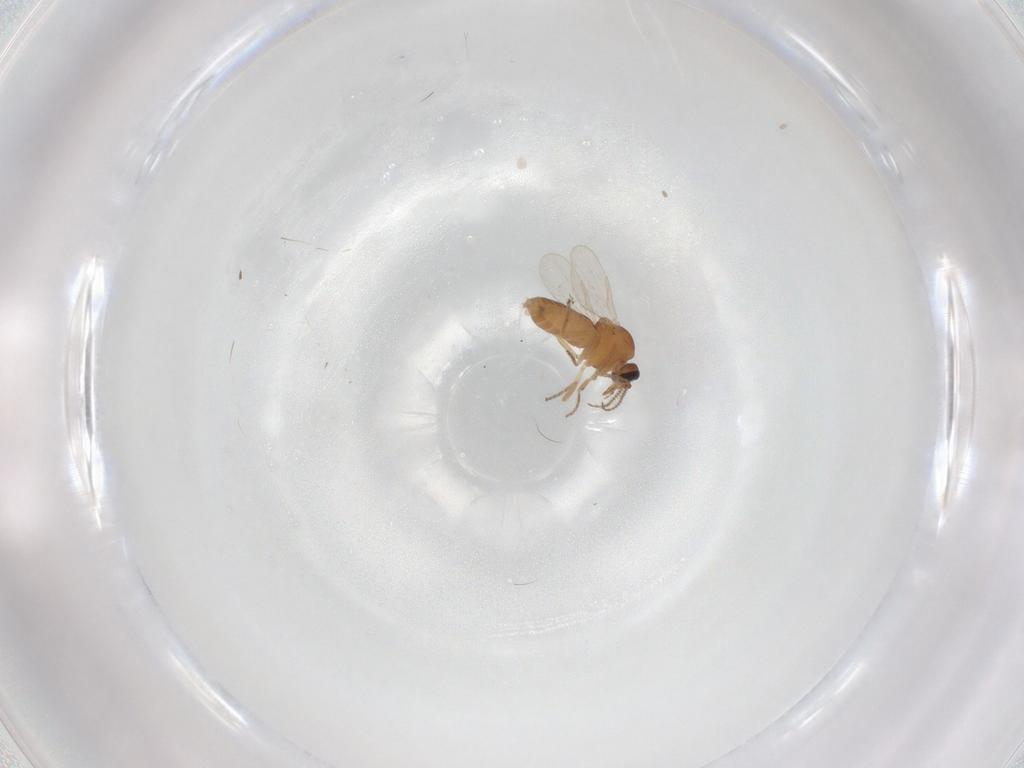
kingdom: Animalia
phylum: Arthropoda
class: Insecta
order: Diptera
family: Ceratopogonidae
